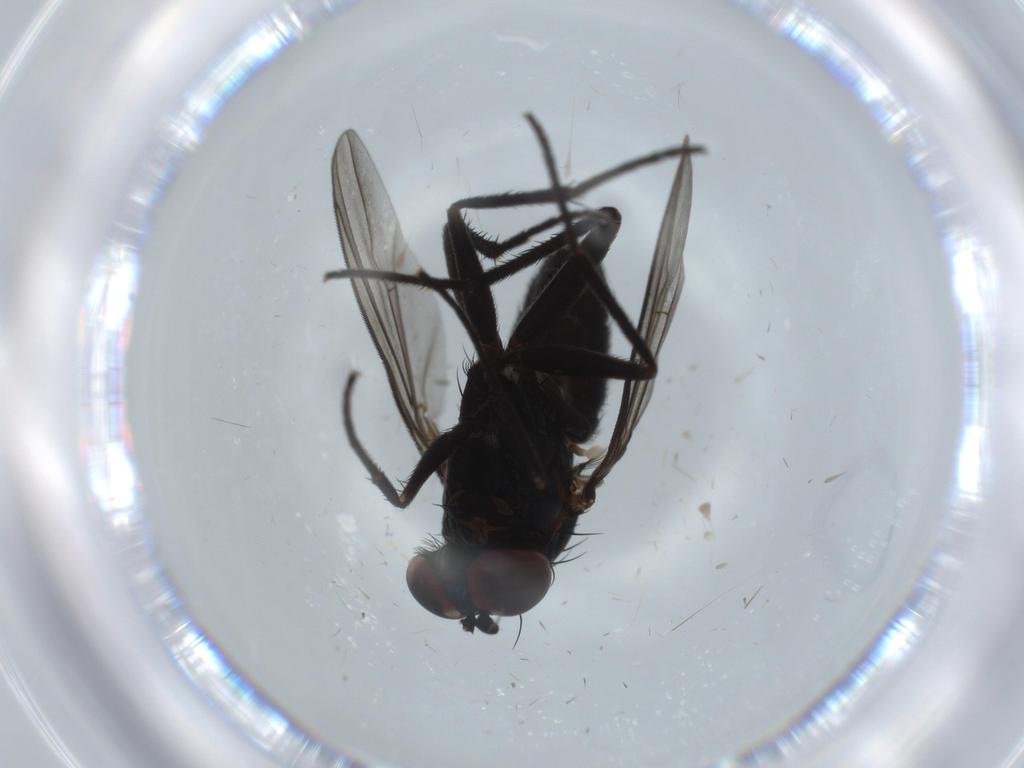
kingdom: Animalia
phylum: Arthropoda
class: Insecta
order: Diptera
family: Dolichopodidae
